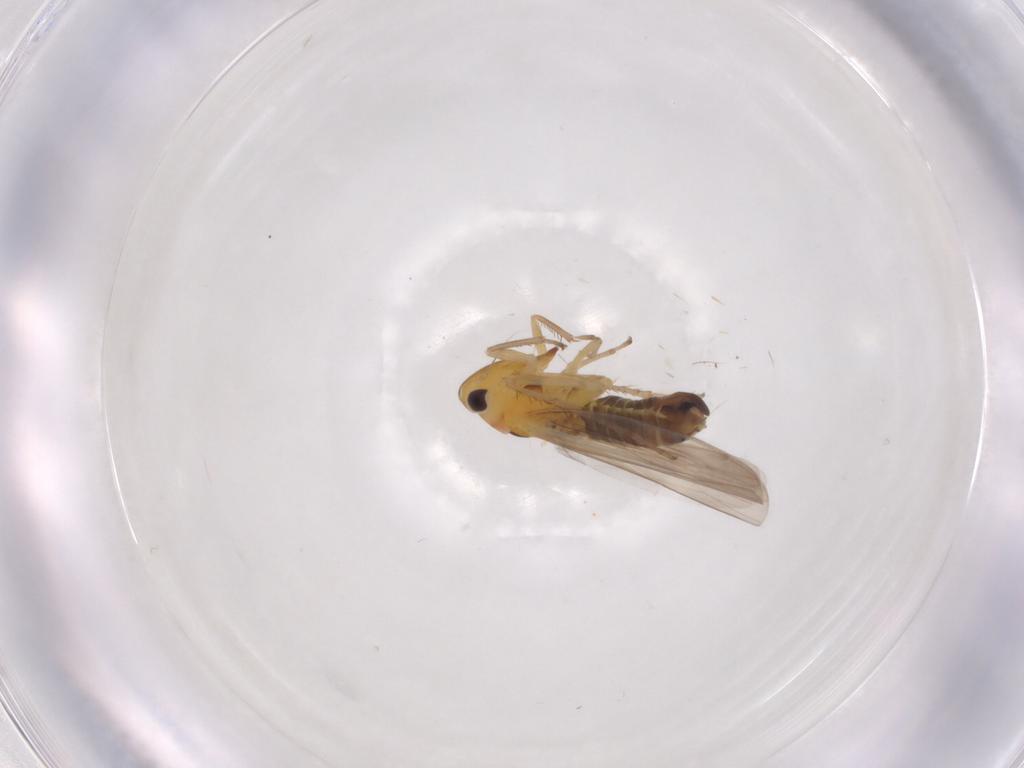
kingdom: Animalia
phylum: Arthropoda
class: Insecta
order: Hemiptera
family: Cicadellidae
